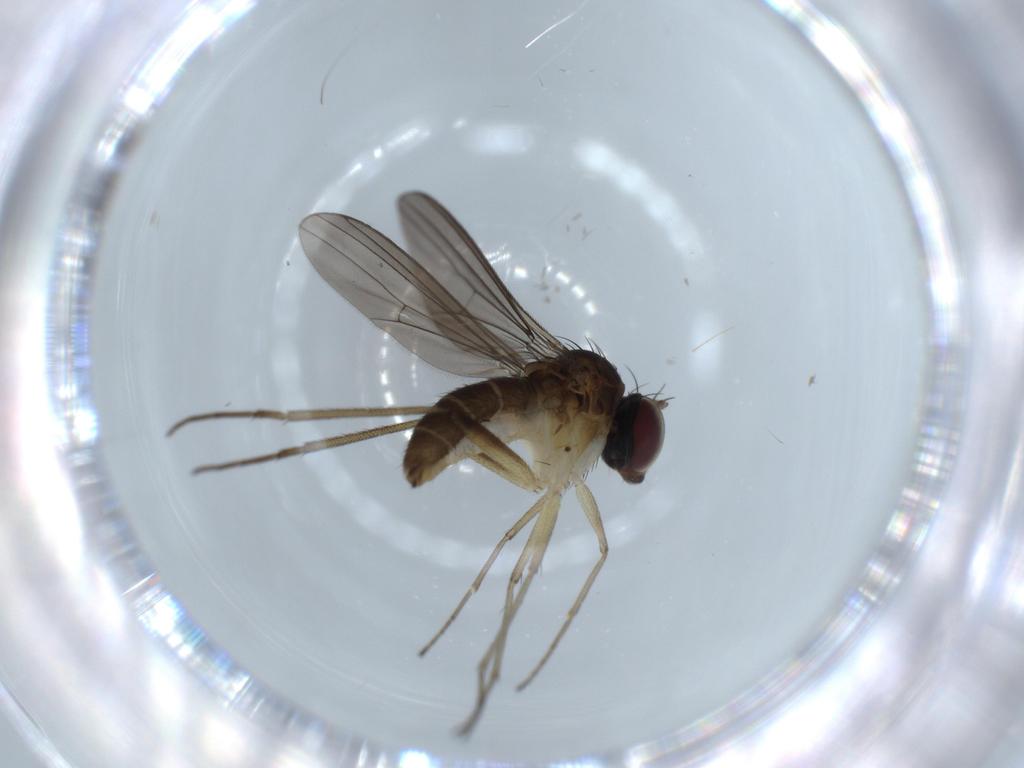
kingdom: Animalia
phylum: Arthropoda
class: Insecta
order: Diptera
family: Dolichopodidae
